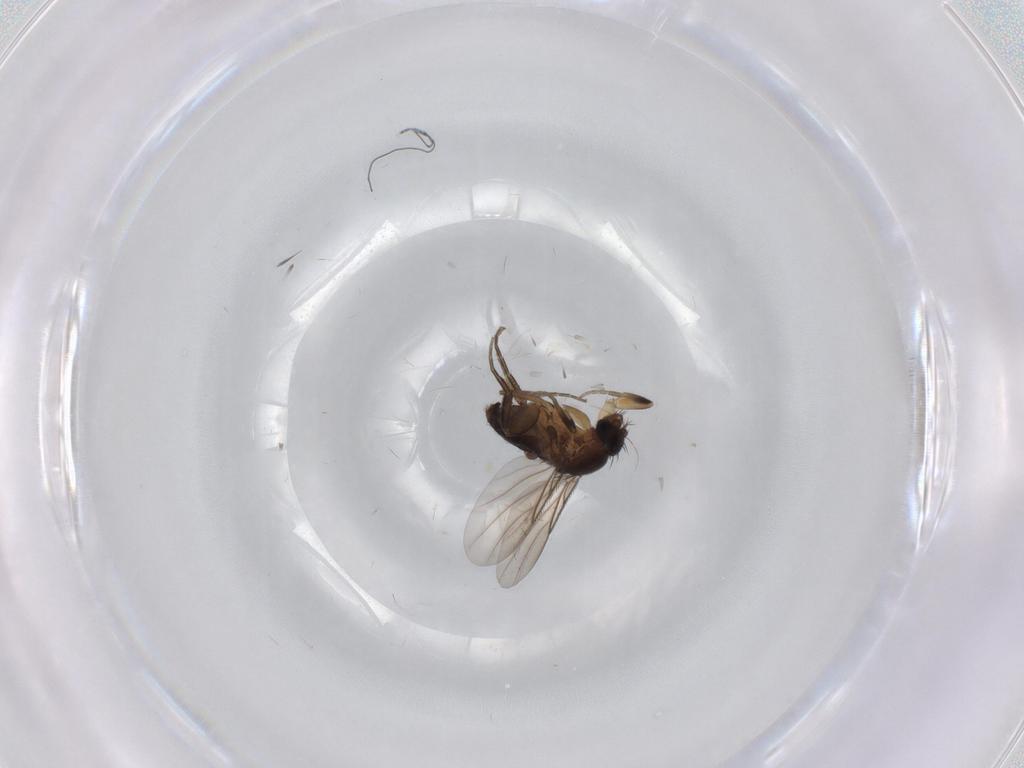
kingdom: Animalia
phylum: Arthropoda
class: Insecta
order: Diptera
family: Phoridae
